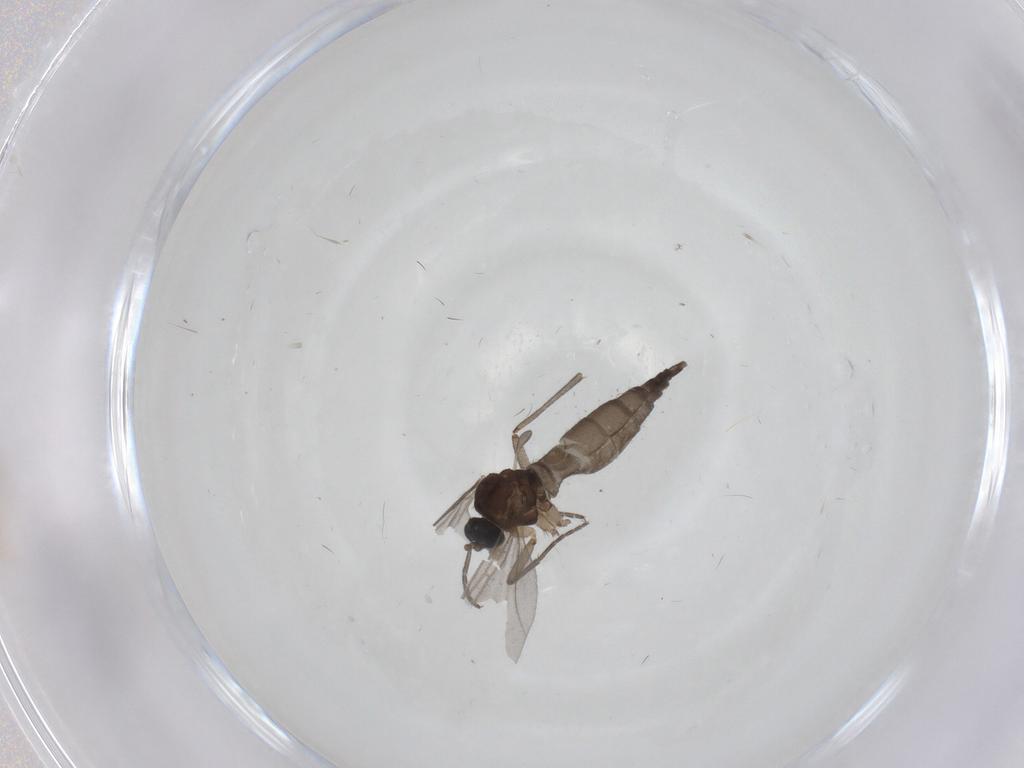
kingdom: Animalia
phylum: Arthropoda
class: Insecta
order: Diptera
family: Sciaridae
